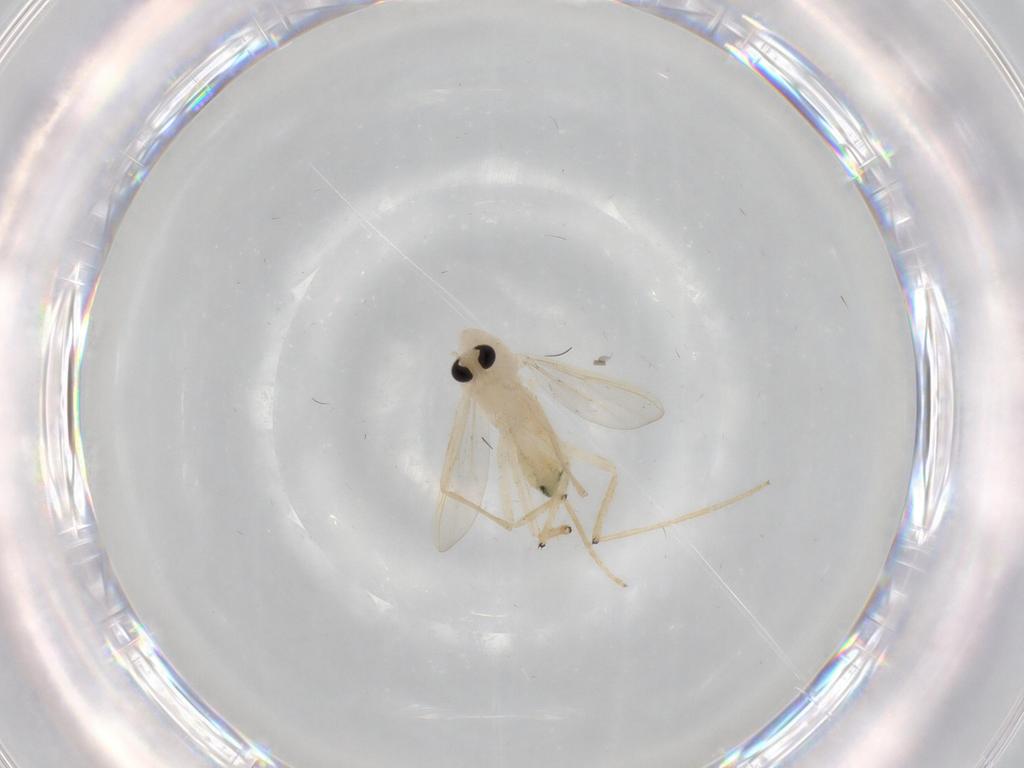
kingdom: Animalia
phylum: Arthropoda
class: Insecta
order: Diptera
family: Chironomidae
